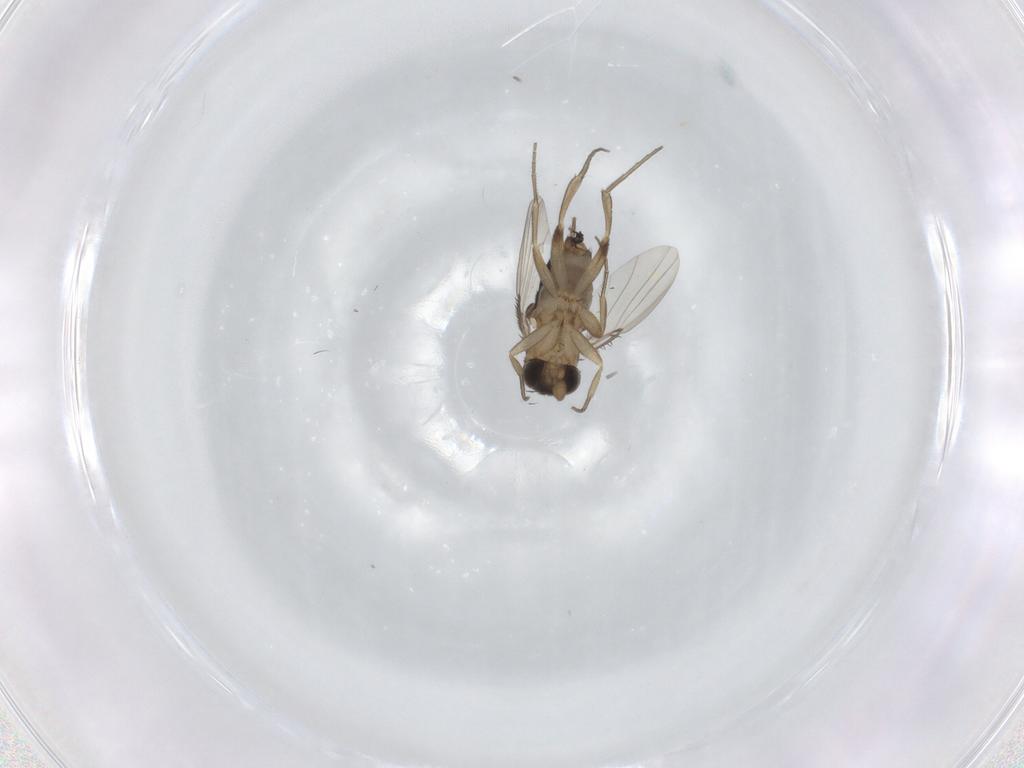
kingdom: Animalia
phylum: Arthropoda
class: Insecta
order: Diptera
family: Phoridae
